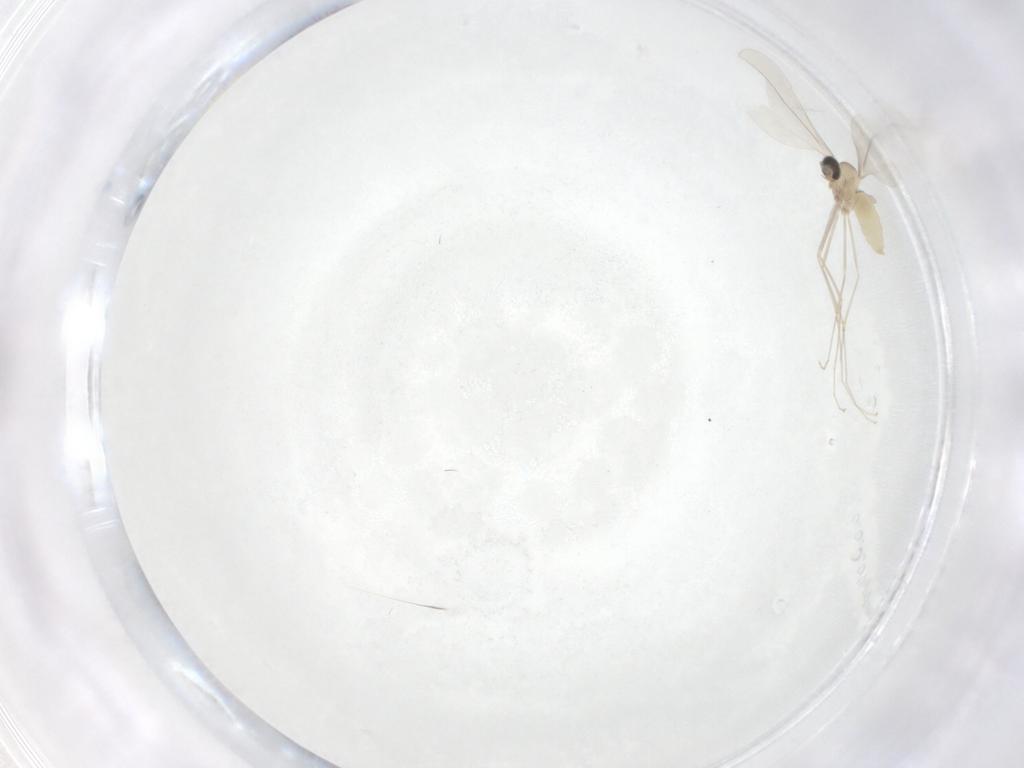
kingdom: Animalia
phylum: Arthropoda
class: Insecta
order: Diptera
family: Cecidomyiidae
